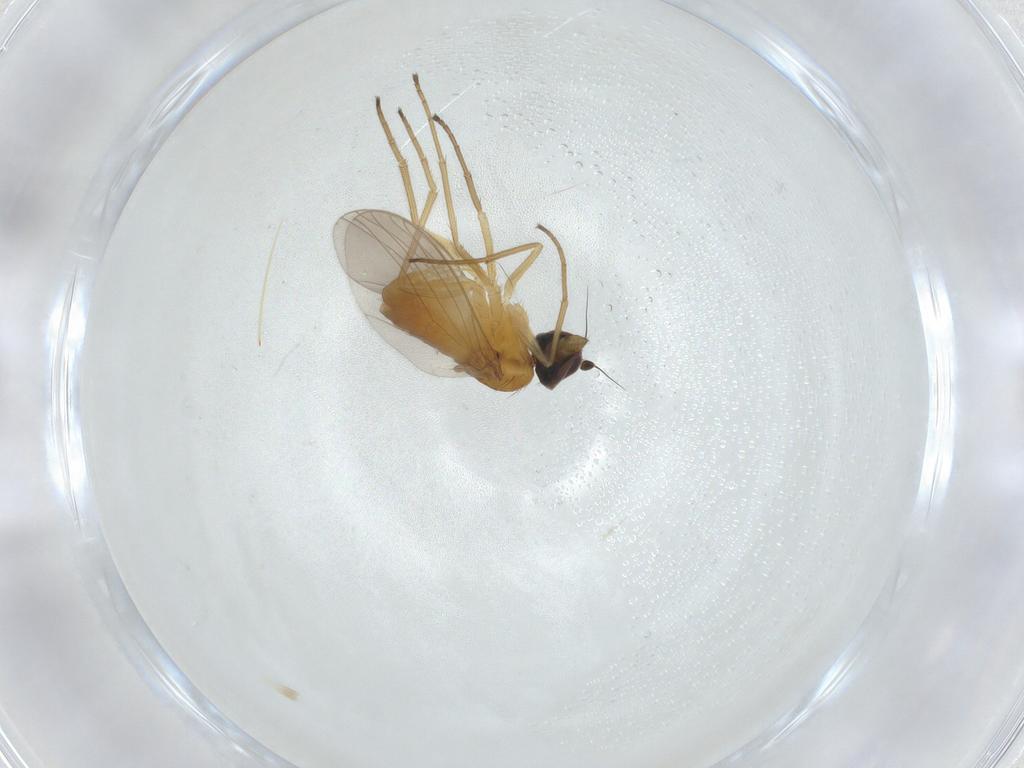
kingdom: Animalia
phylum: Arthropoda
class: Insecta
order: Diptera
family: Dolichopodidae
